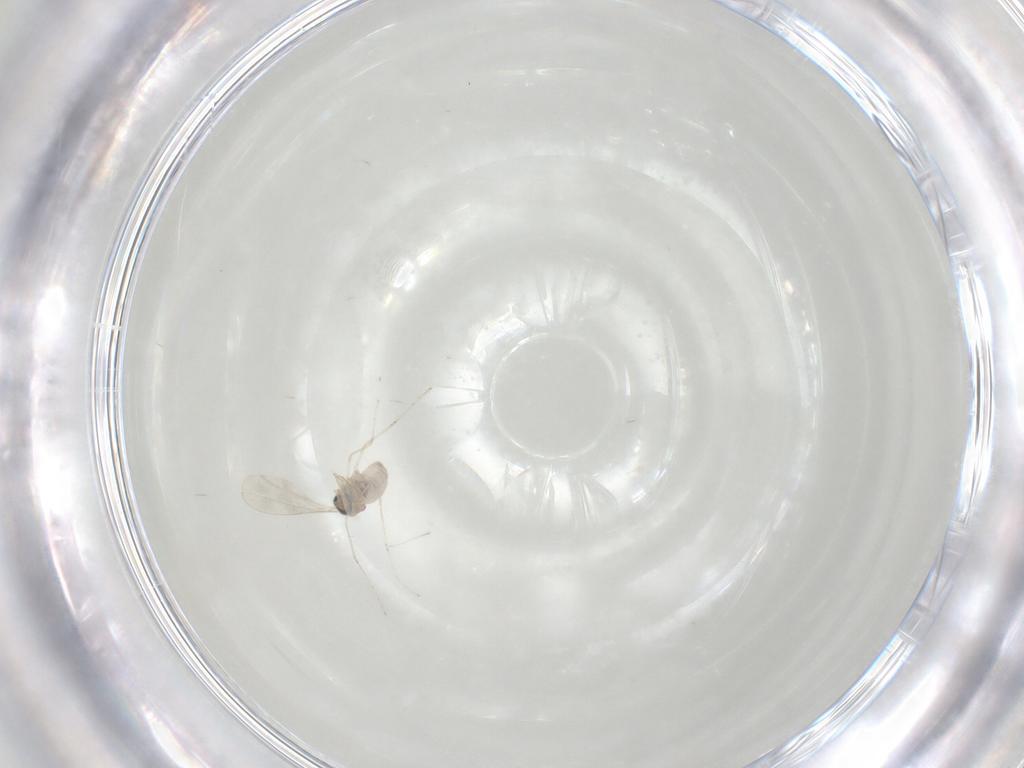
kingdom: Animalia
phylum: Arthropoda
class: Insecta
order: Diptera
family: Cecidomyiidae
